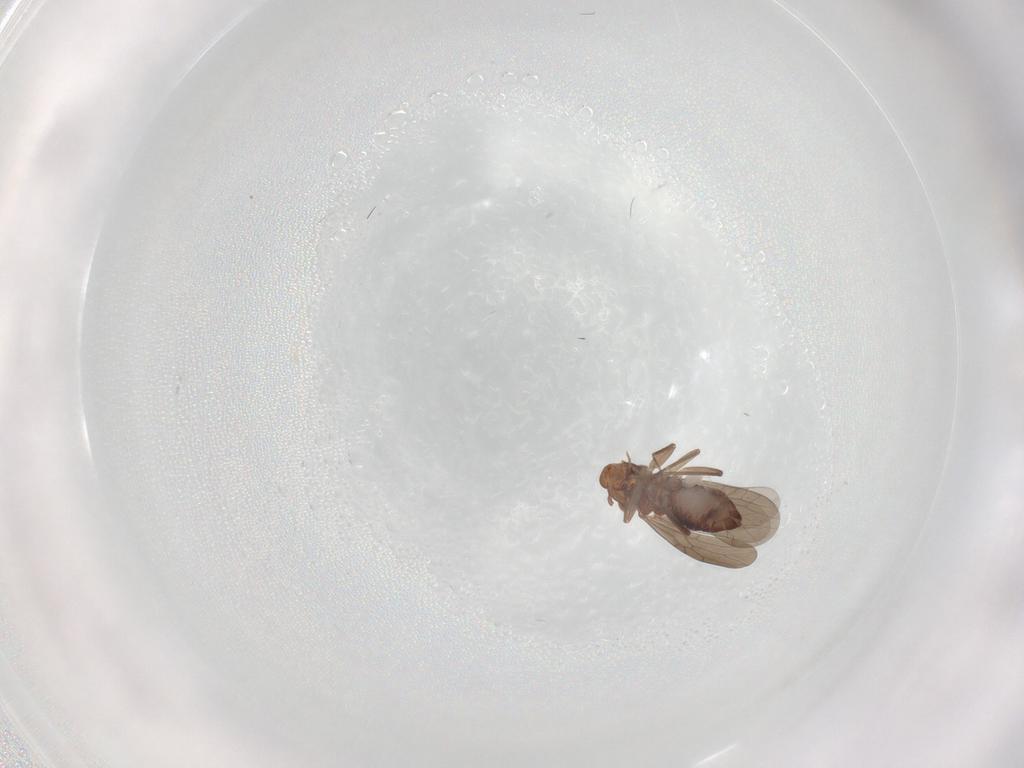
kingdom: Animalia
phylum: Arthropoda
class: Insecta
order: Psocodea
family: Lepidopsocidae
